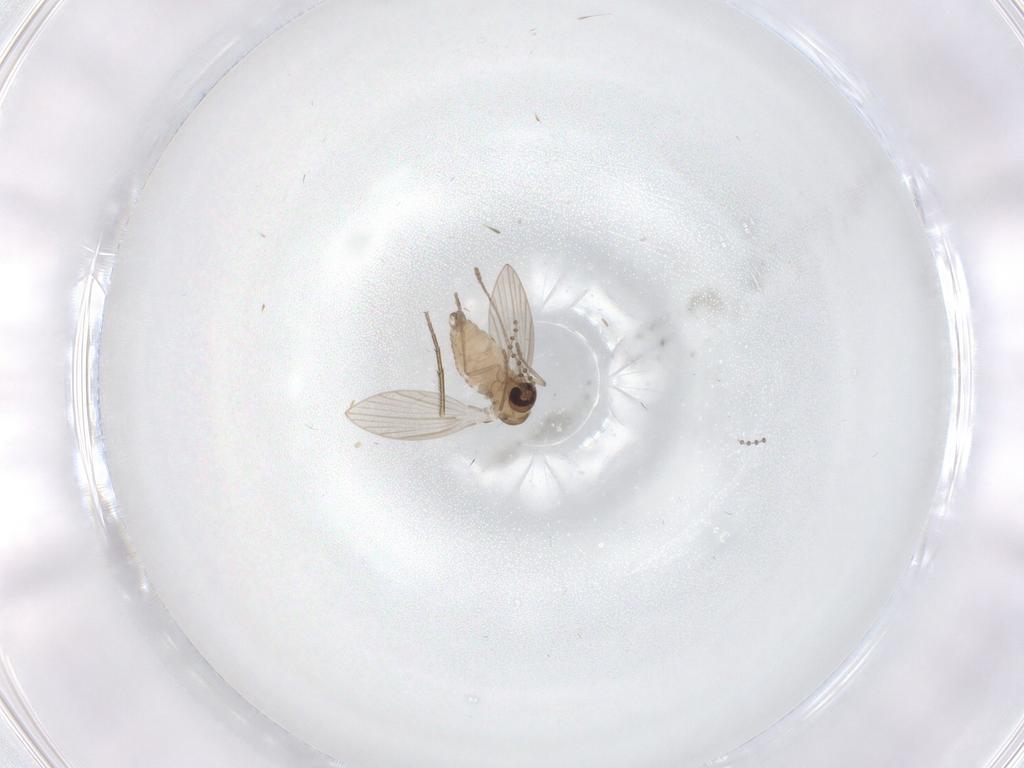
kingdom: Animalia
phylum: Arthropoda
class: Insecta
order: Diptera
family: Psychodidae
